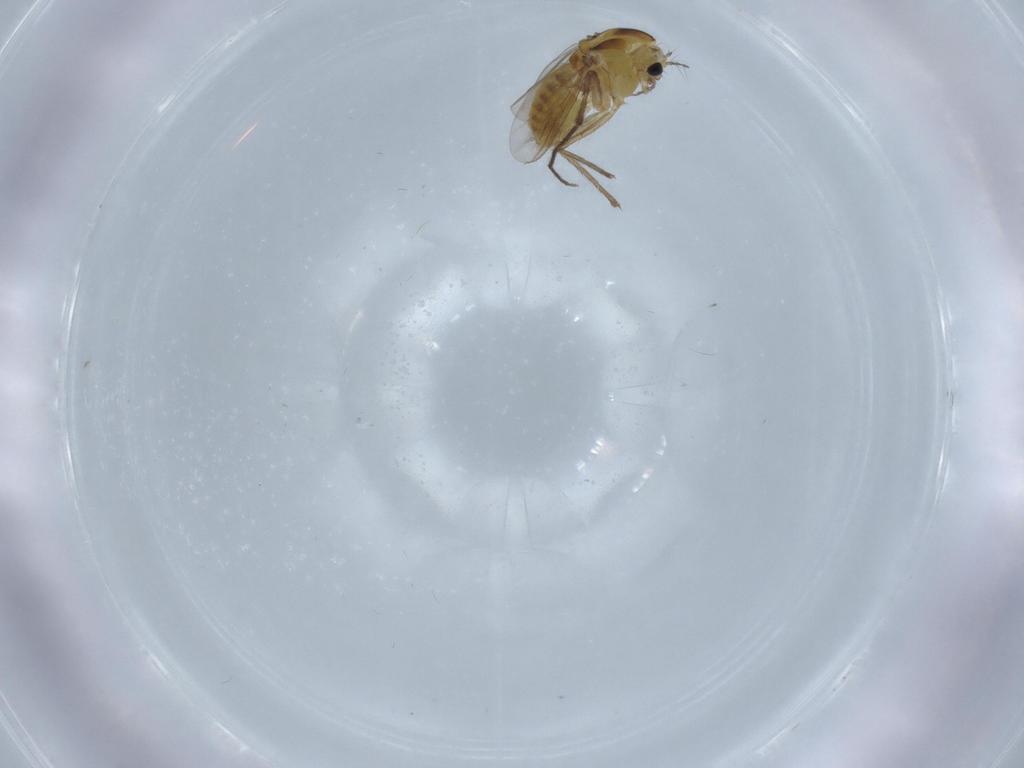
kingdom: Animalia
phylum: Arthropoda
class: Insecta
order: Diptera
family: Chironomidae
